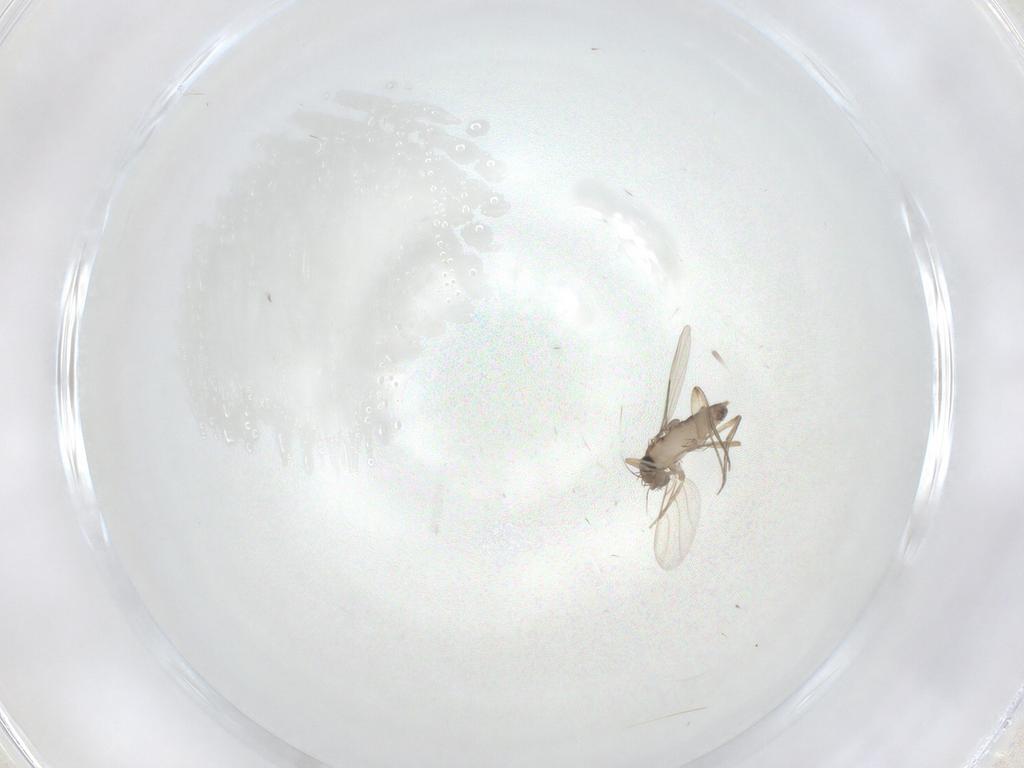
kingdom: Animalia
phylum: Arthropoda
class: Insecta
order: Diptera
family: Phoridae
